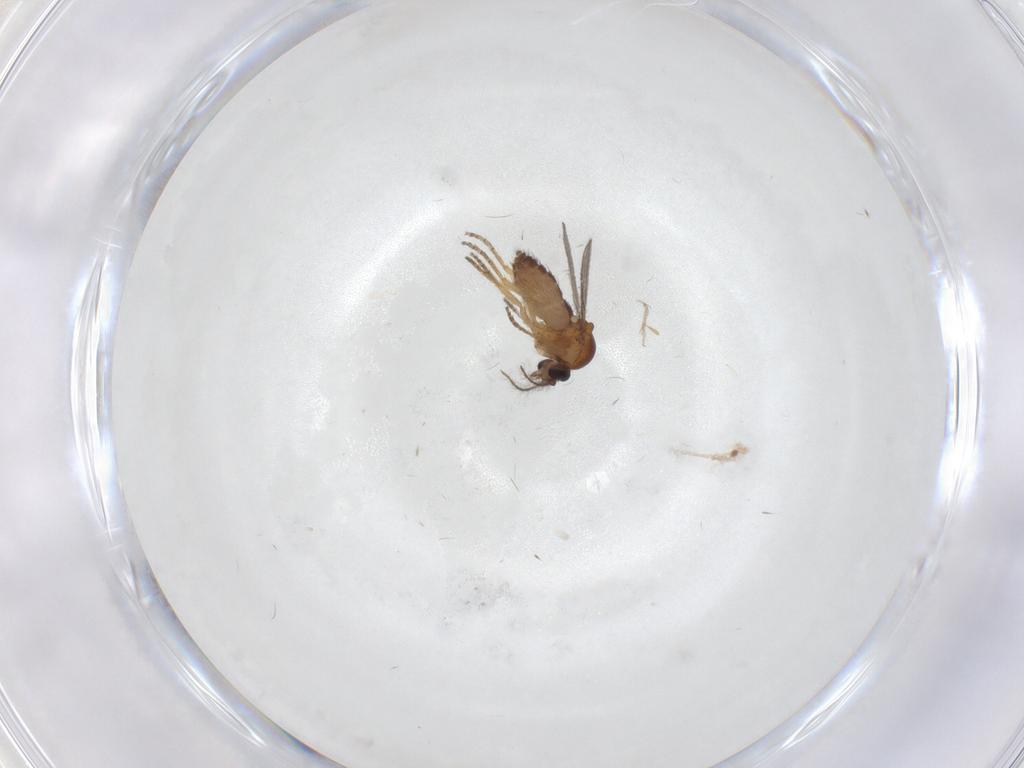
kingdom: Animalia
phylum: Arthropoda
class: Insecta
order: Diptera
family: Ceratopogonidae
